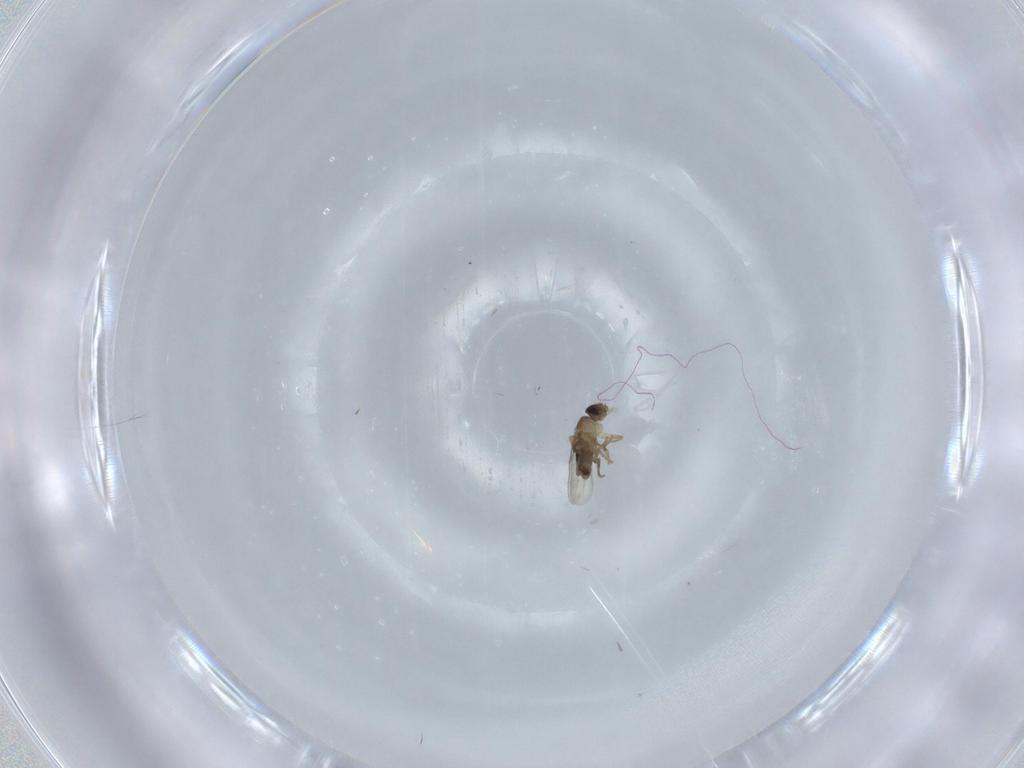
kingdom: Animalia
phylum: Arthropoda
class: Insecta
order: Diptera
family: Phoridae
